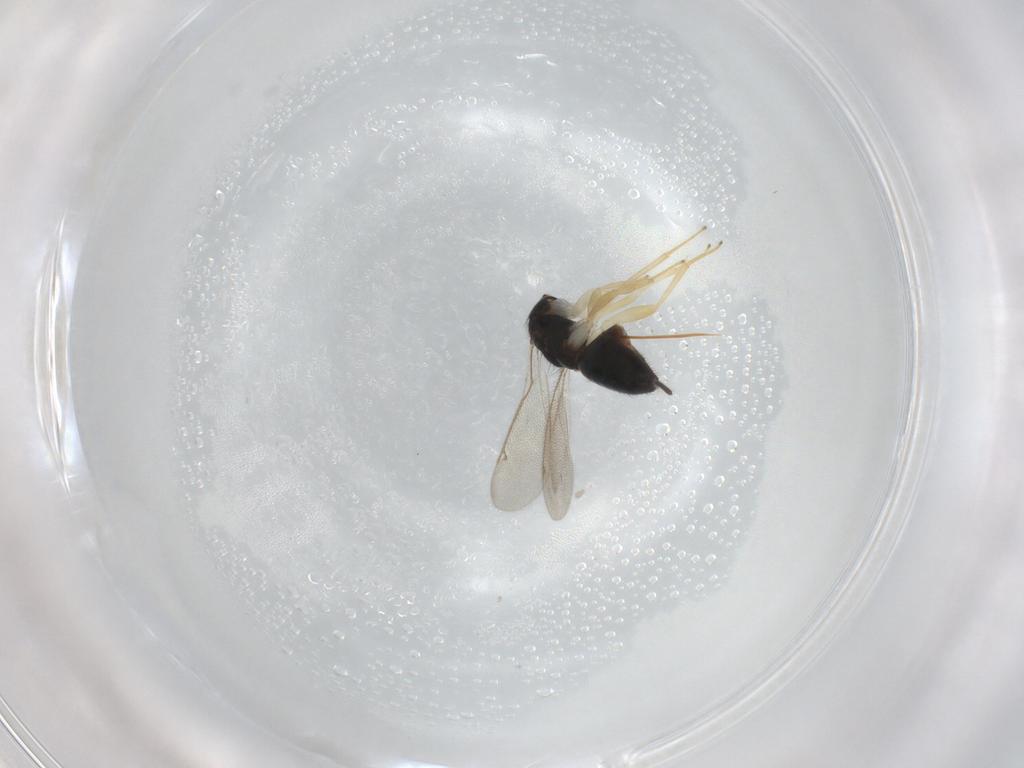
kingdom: Animalia
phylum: Arthropoda
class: Insecta
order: Hymenoptera
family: Eulophidae
